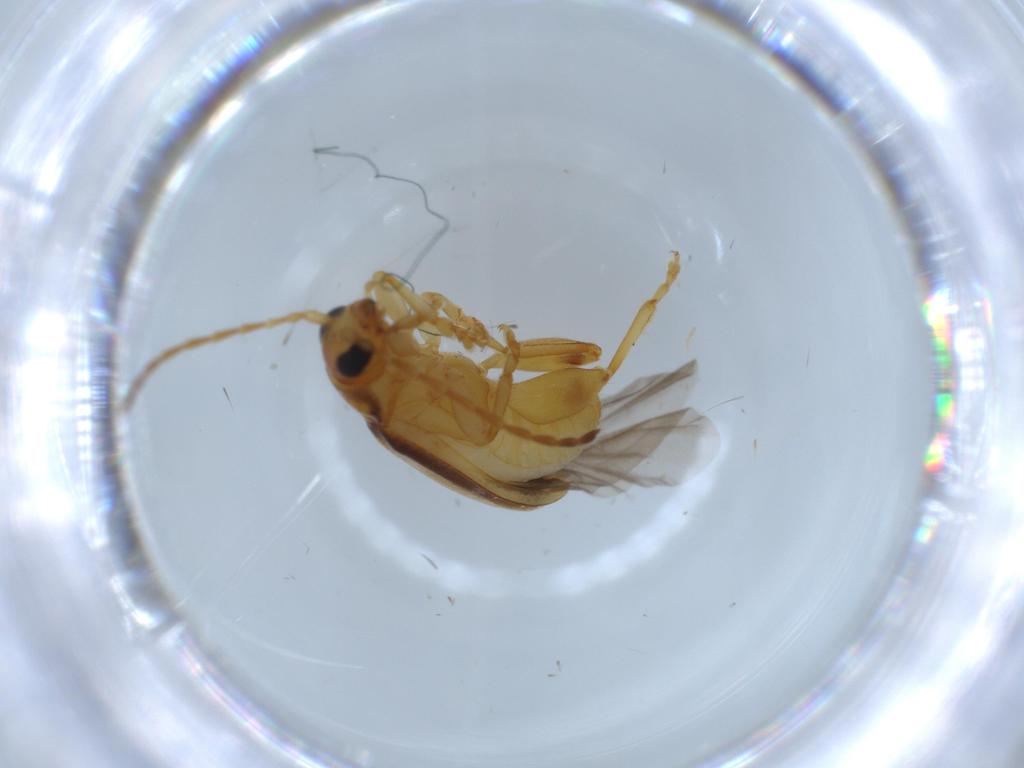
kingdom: Animalia
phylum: Arthropoda
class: Insecta
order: Coleoptera
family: Chrysomelidae
